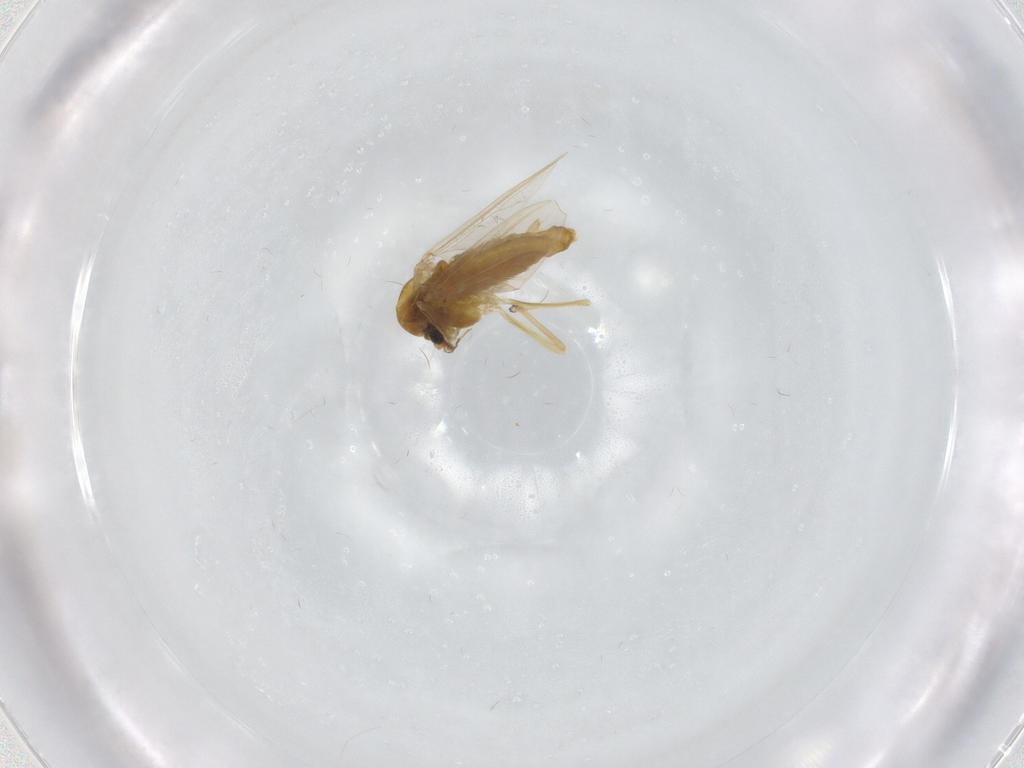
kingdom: Animalia
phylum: Arthropoda
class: Insecta
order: Diptera
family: Chironomidae
